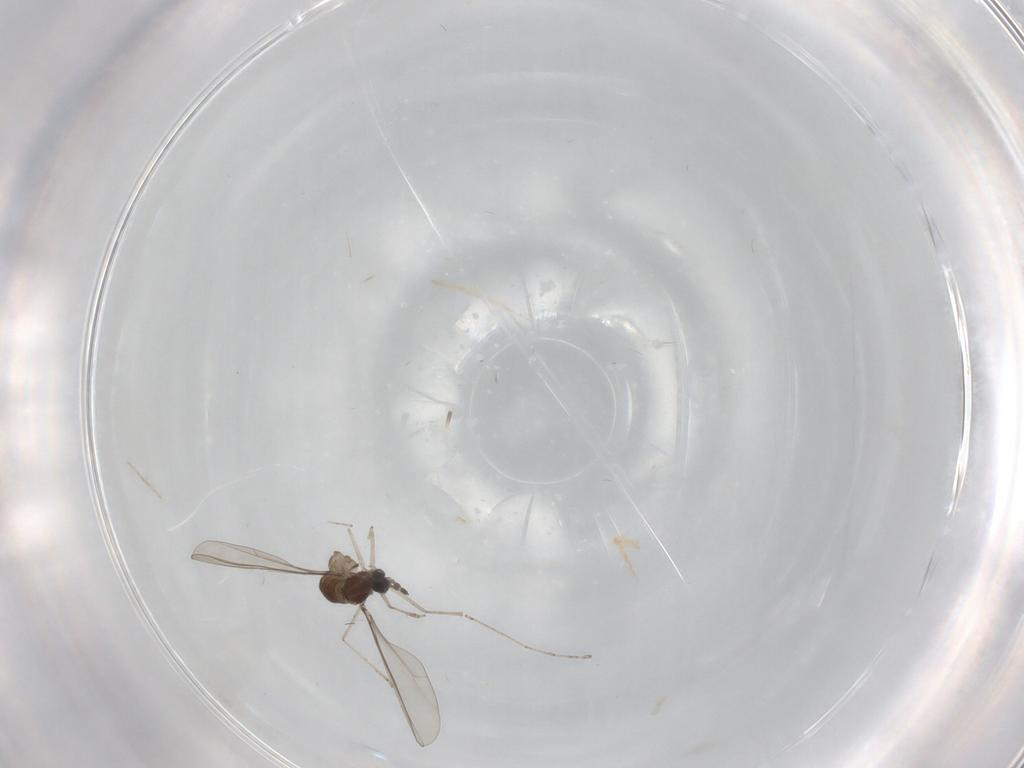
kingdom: Animalia
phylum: Arthropoda
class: Insecta
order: Diptera
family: Cecidomyiidae
